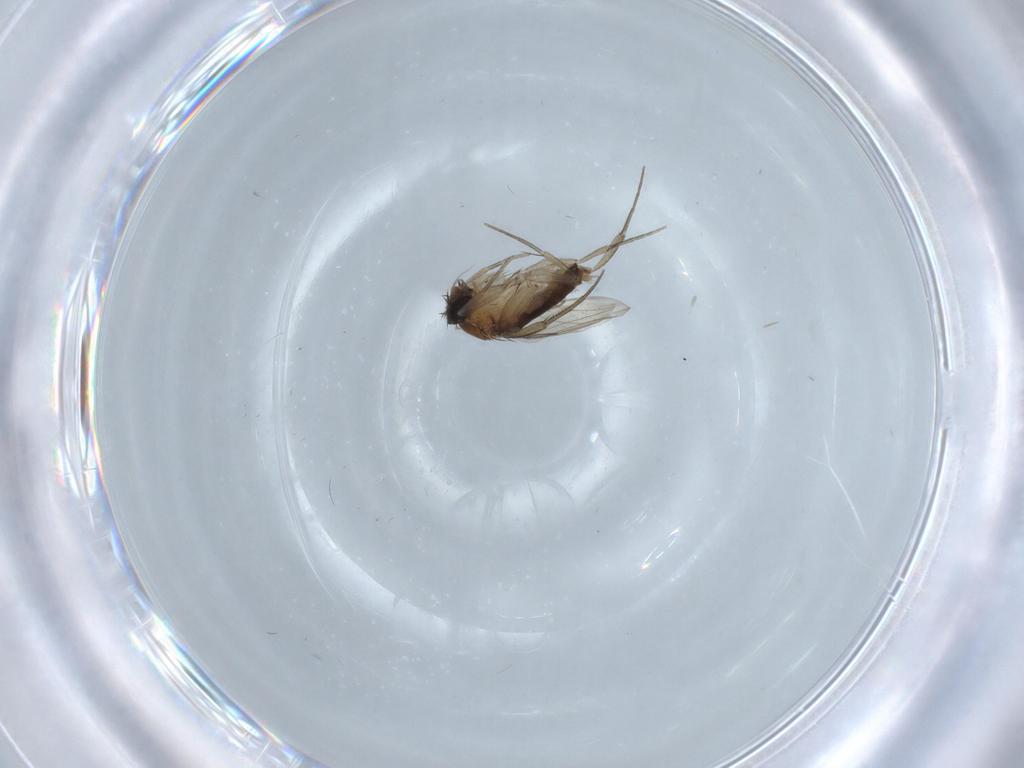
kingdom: Animalia
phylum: Arthropoda
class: Insecta
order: Diptera
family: Phoridae
